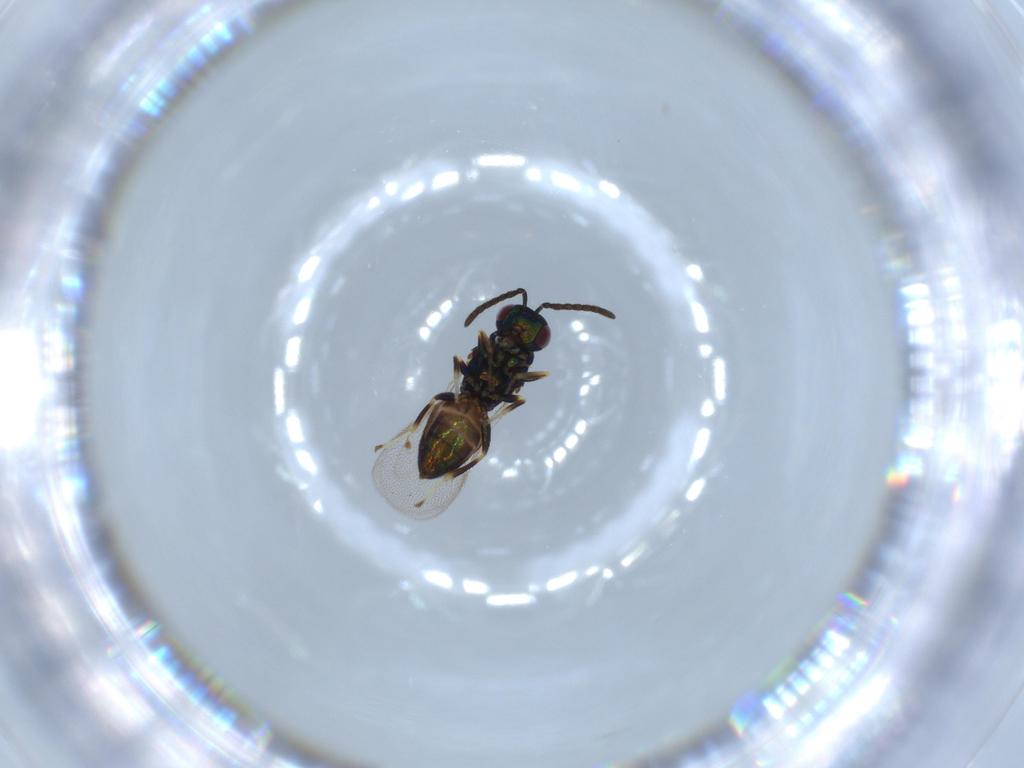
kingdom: Animalia
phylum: Arthropoda
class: Insecta
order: Hymenoptera
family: Pteromalidae
